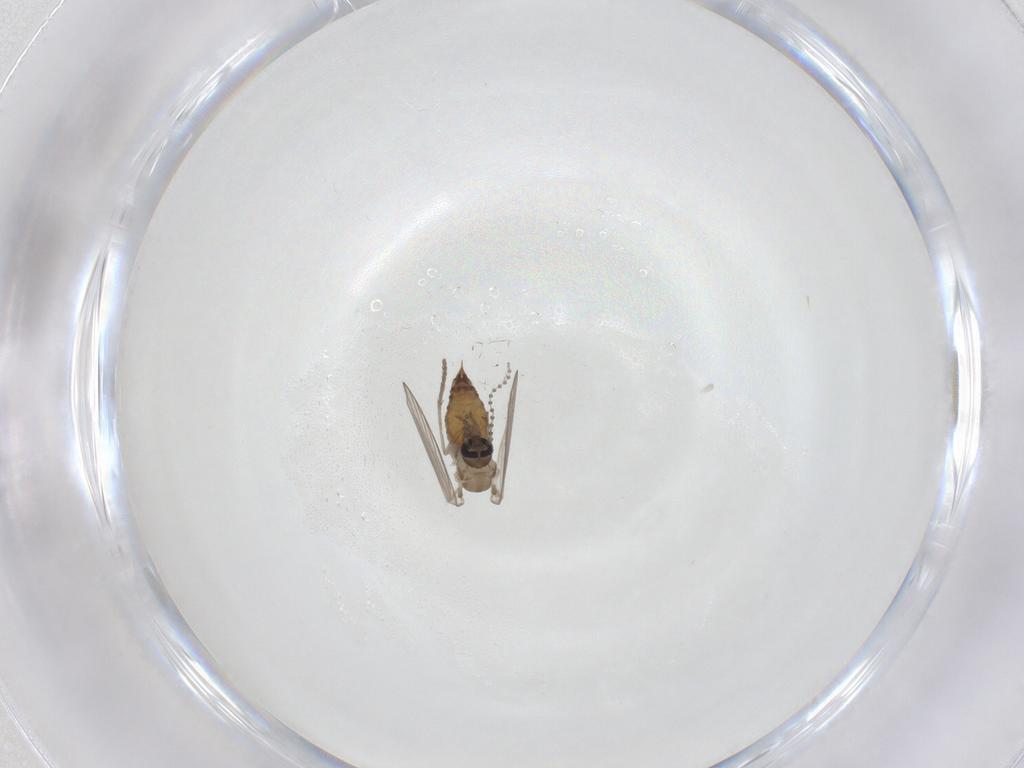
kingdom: Animalia
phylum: Arthropoda
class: Insecta
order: Diptera
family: Psychodidae
